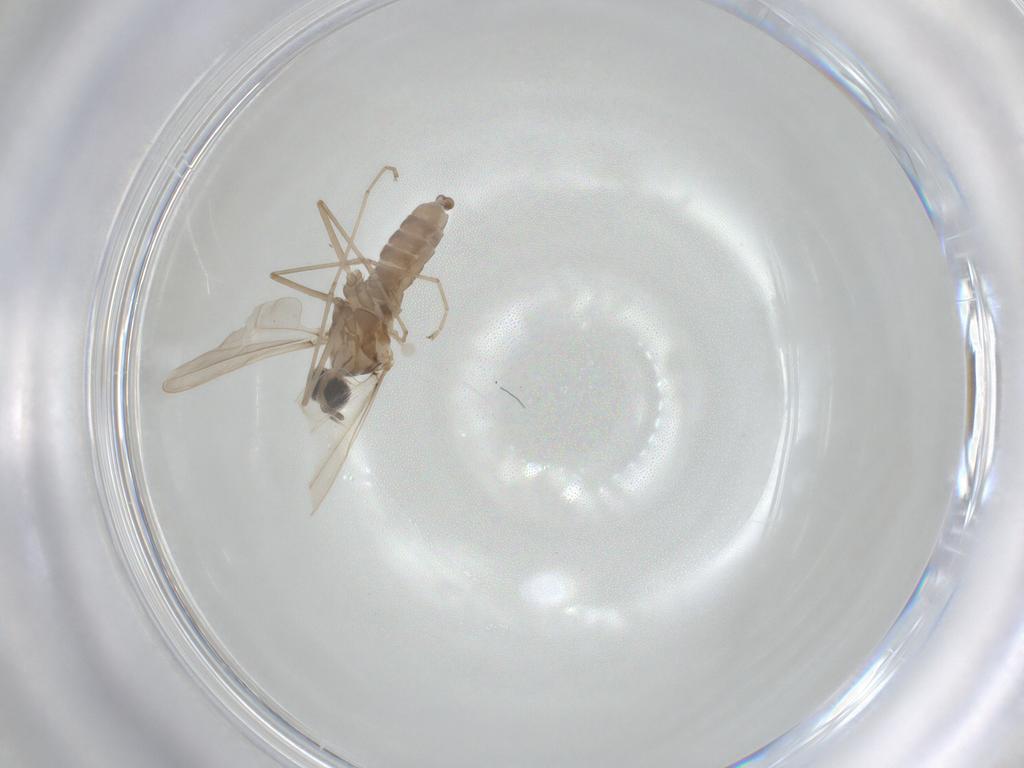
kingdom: Animalia
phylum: Arthropoda
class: Insecta
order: Diptera
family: Cecidomyiidae
